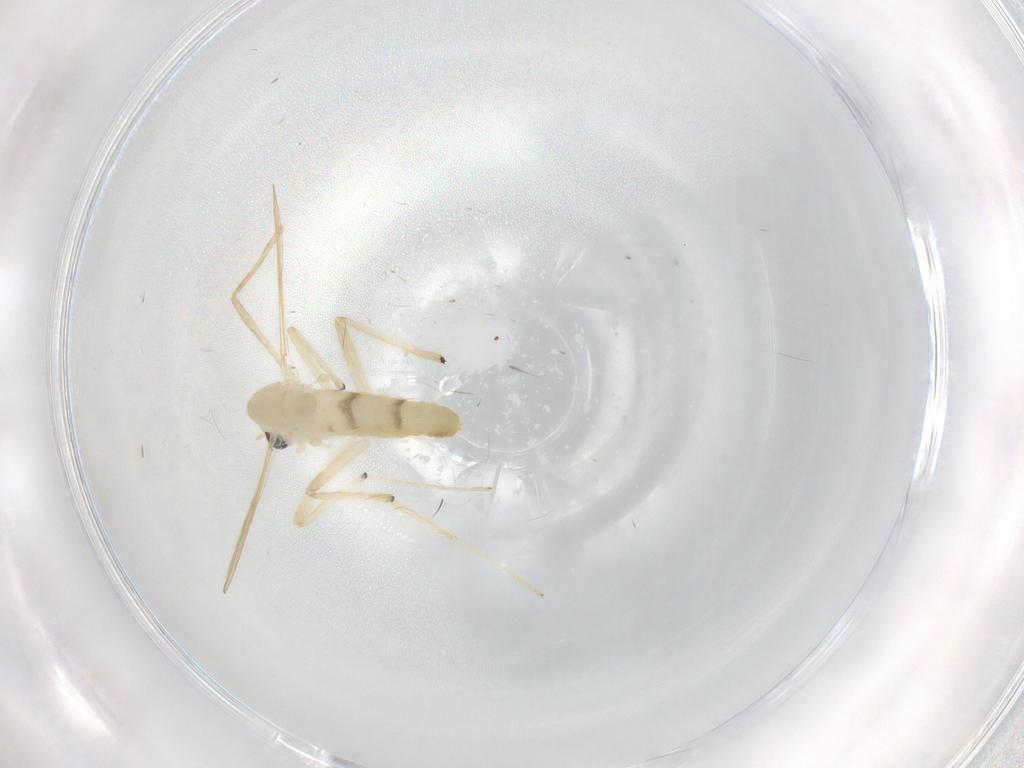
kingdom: Animalia
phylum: Arthropoda
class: Insecta
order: Diptera
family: Chironomidae
